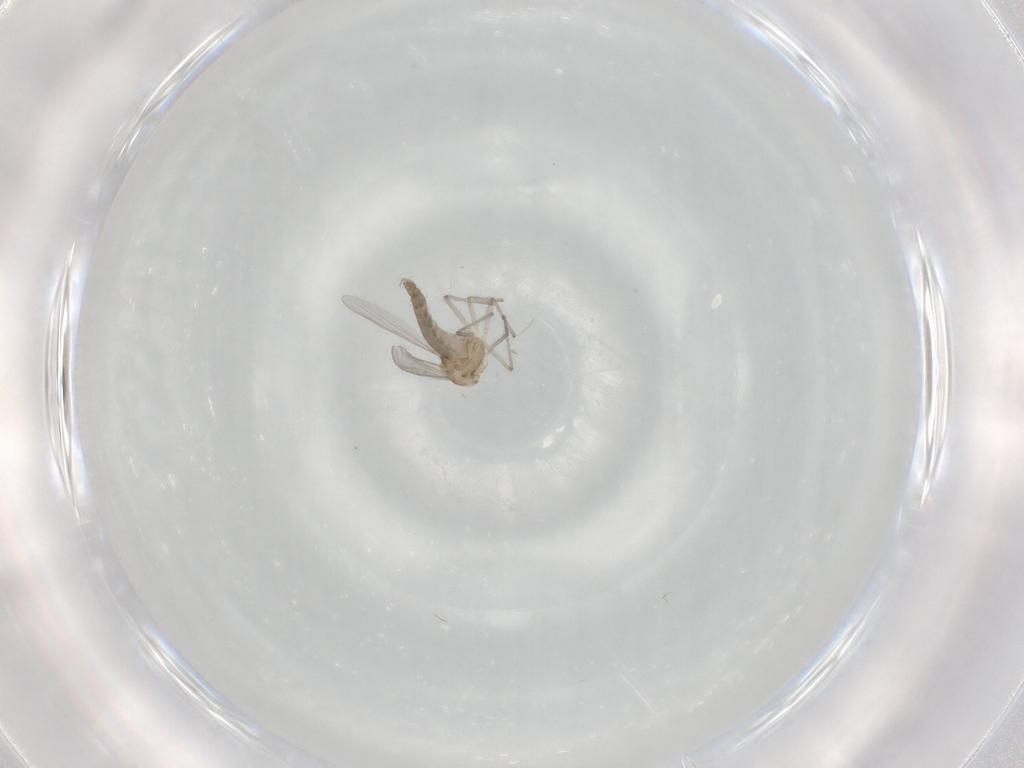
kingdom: Animalia
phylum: Arthropoda
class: Insecta
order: Diptera
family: Chironomidae
